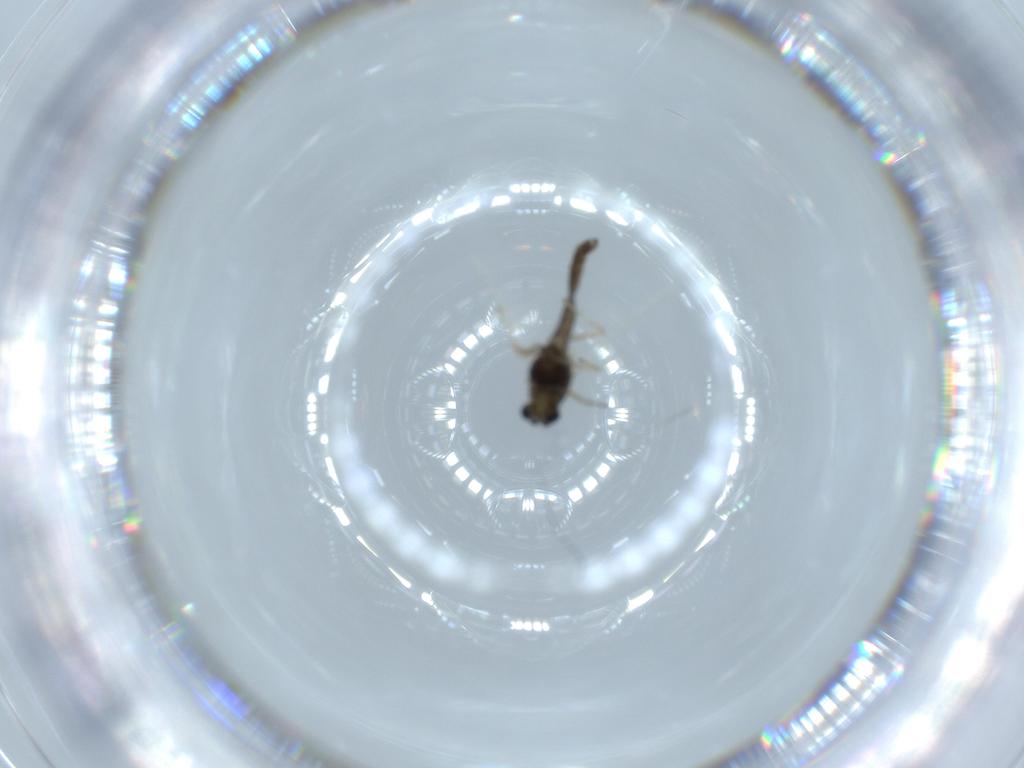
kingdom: Animalia
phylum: Arthropoda
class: Insecta
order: Diptera
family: Chironomidae
